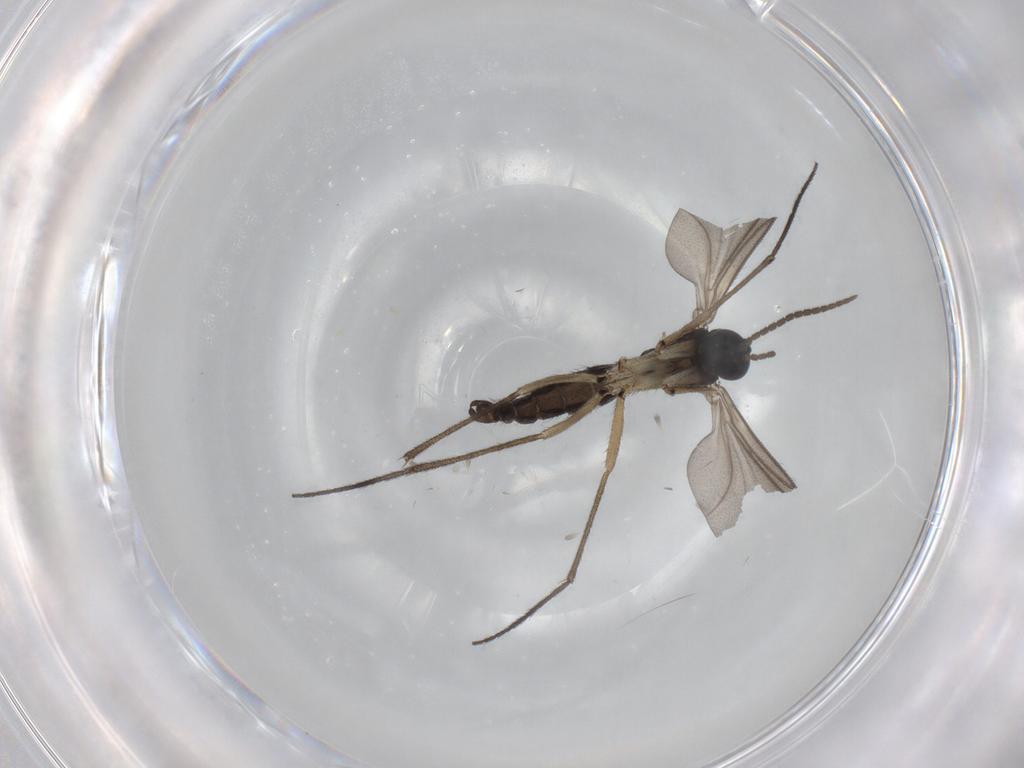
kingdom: Animalia
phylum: Arthropoda
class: Insecta
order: Diptera
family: Sciaridae
